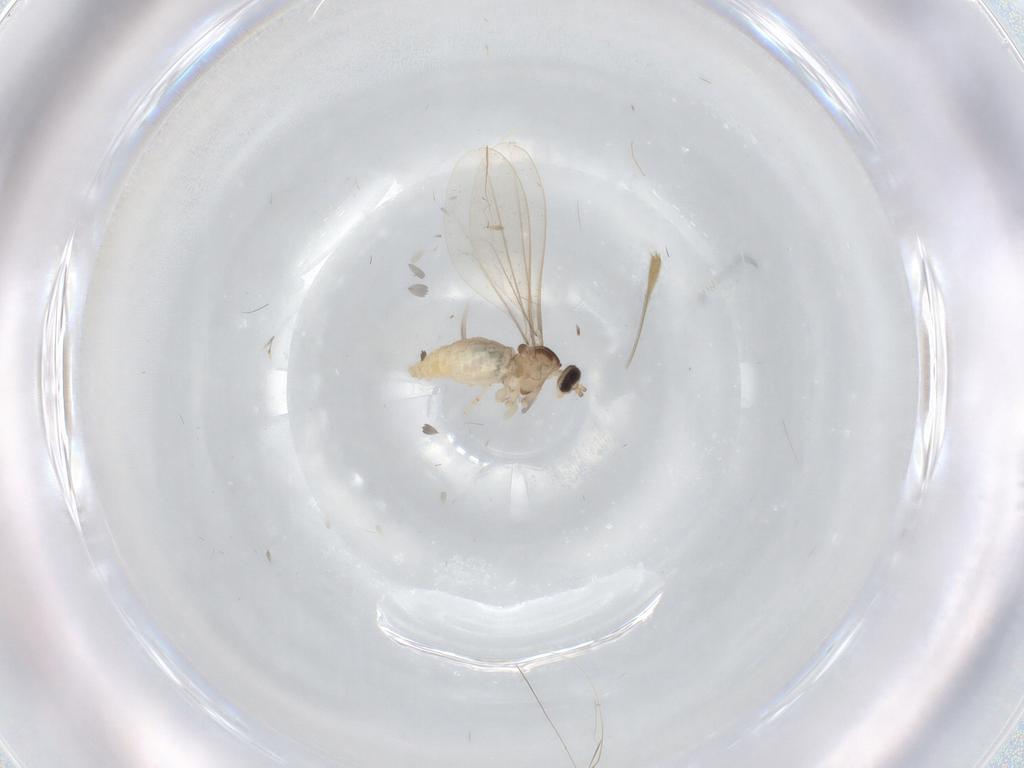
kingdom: Animalia
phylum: Arthropoda
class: Insecta
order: Diptera
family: Cecidomyiidae
